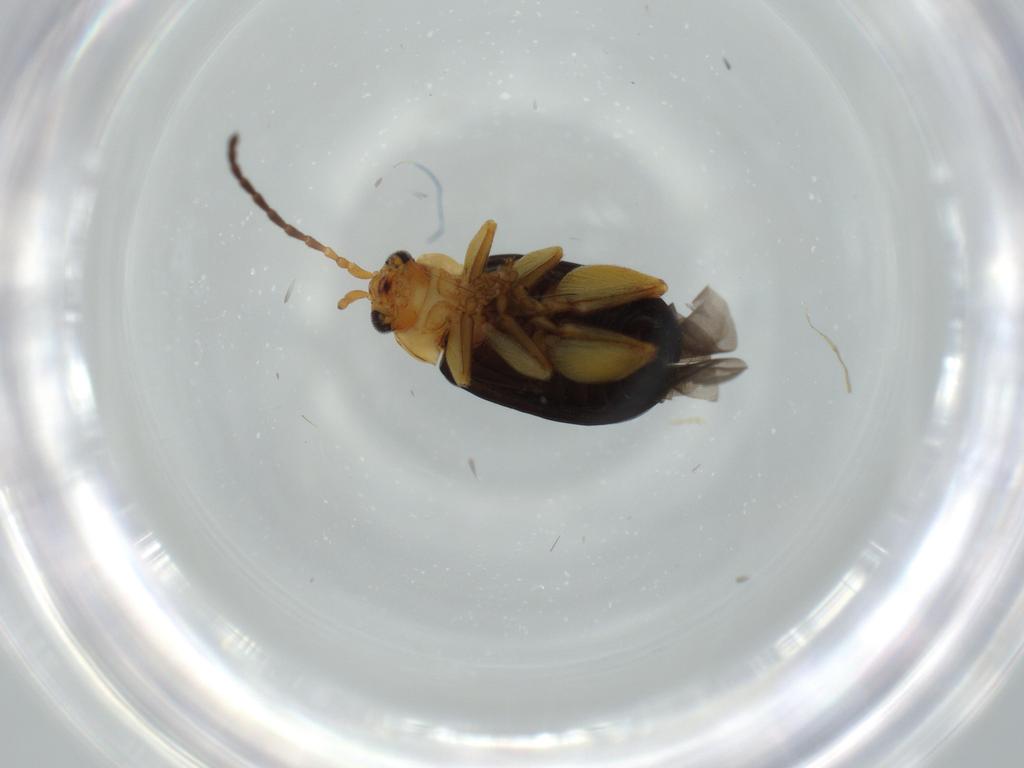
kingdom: Animalia
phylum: Arthropoda
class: Insecta
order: Coleoptera
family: Chrysomelidae
